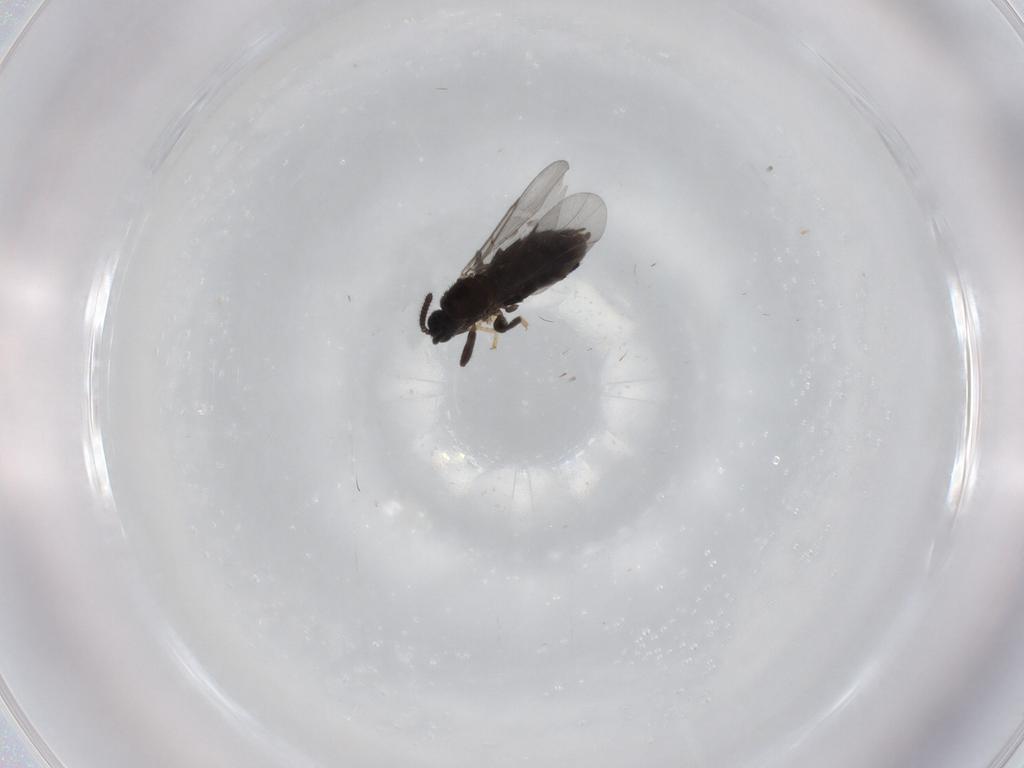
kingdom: Animalia
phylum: Arthropoda
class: Insecta
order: Diptera
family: Scatopsidae
